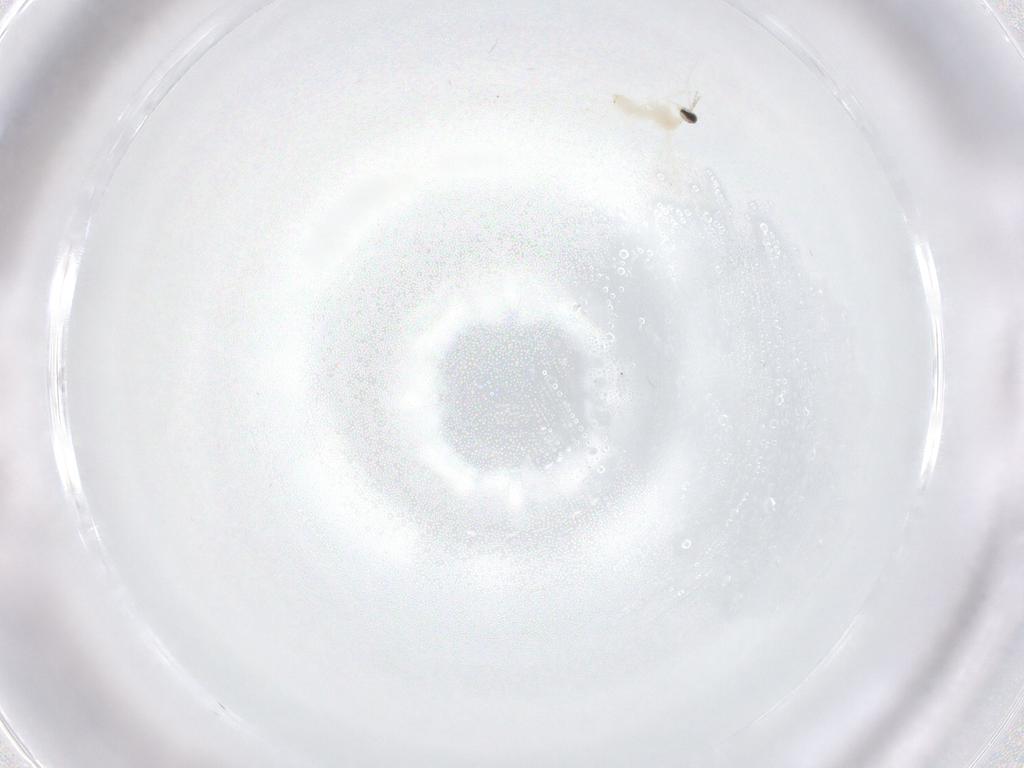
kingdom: Animalia
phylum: Arthropoda
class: Insecta
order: Diptera
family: Cecidomyiidae
